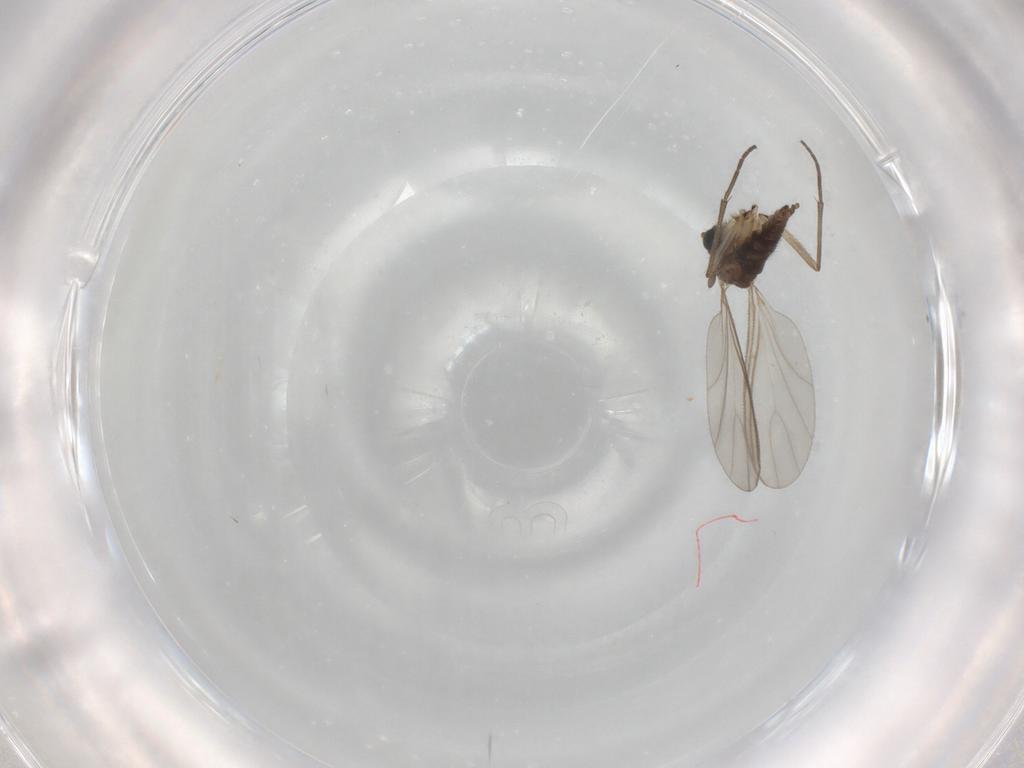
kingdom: Animalia
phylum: Arthropoda
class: Insecta
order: Diptera
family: Sciaridae
